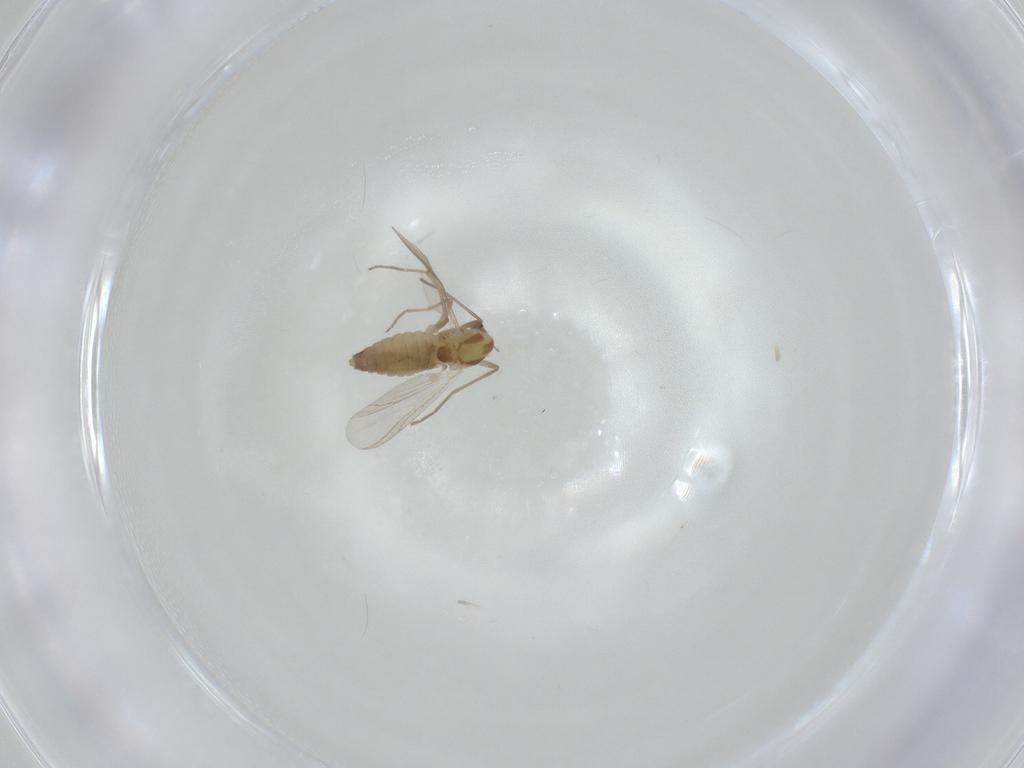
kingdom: Animalia
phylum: Arthropoda
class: Insecta
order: Diptera
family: Chironomidae
